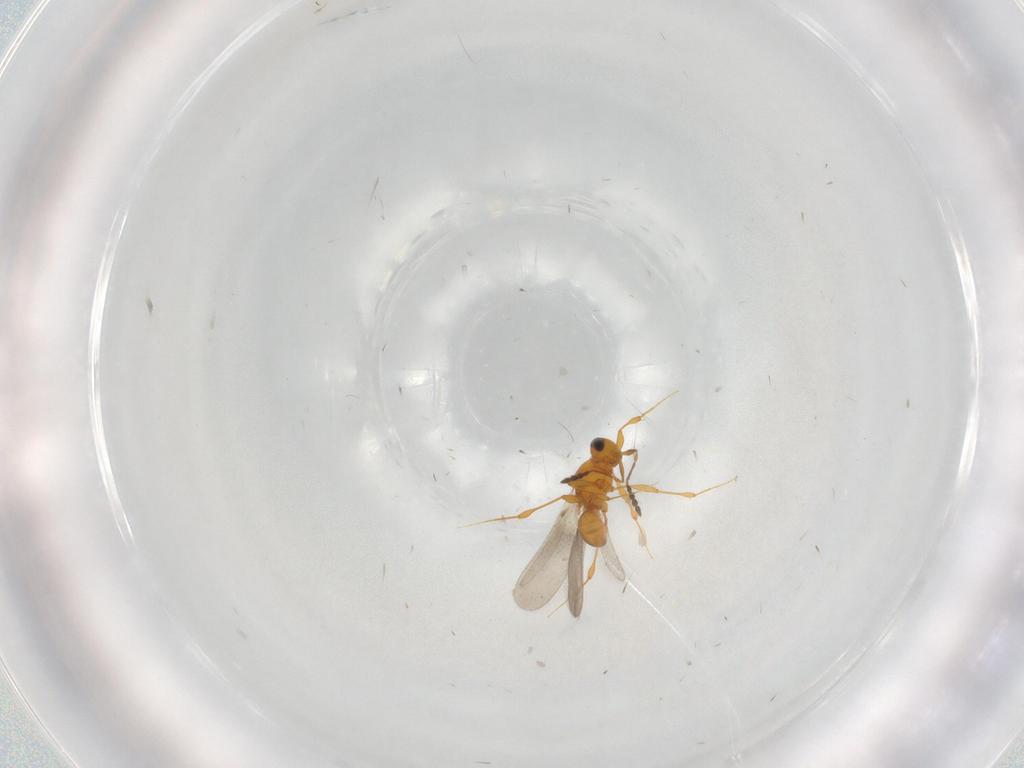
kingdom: Animalia
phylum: Arthropoda
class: Insecta
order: Hymenoptera
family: Platygastridae
